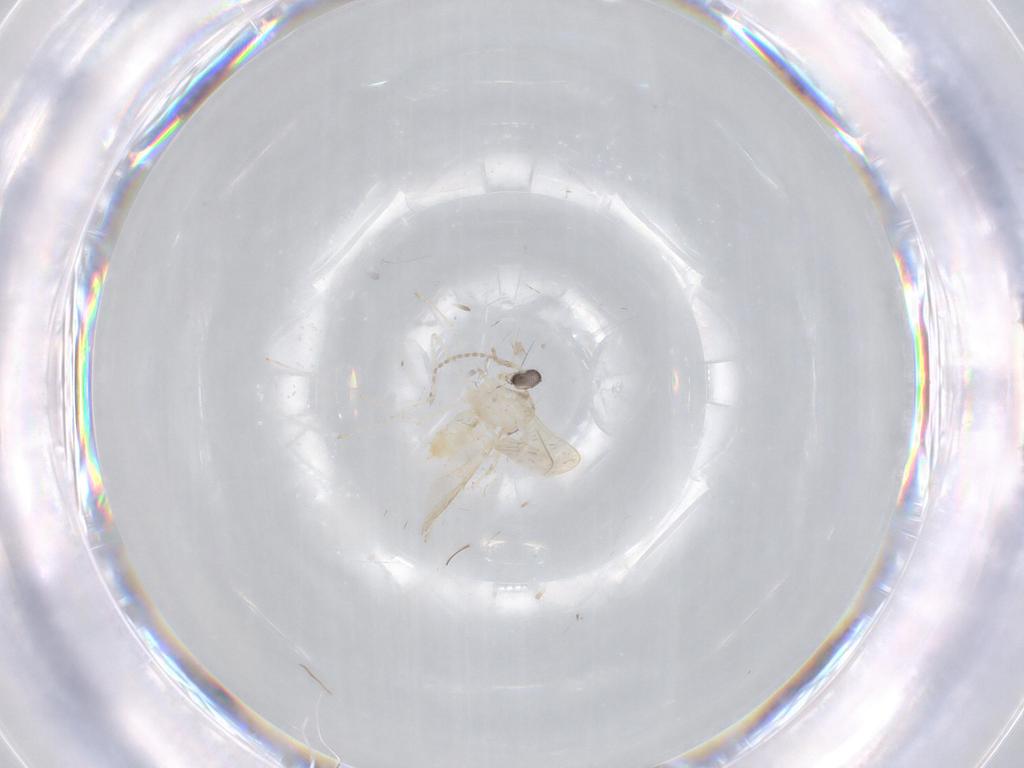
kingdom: Animalia
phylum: Arthropoda
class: Insecta
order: Diptera
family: Cecidomyiidae
